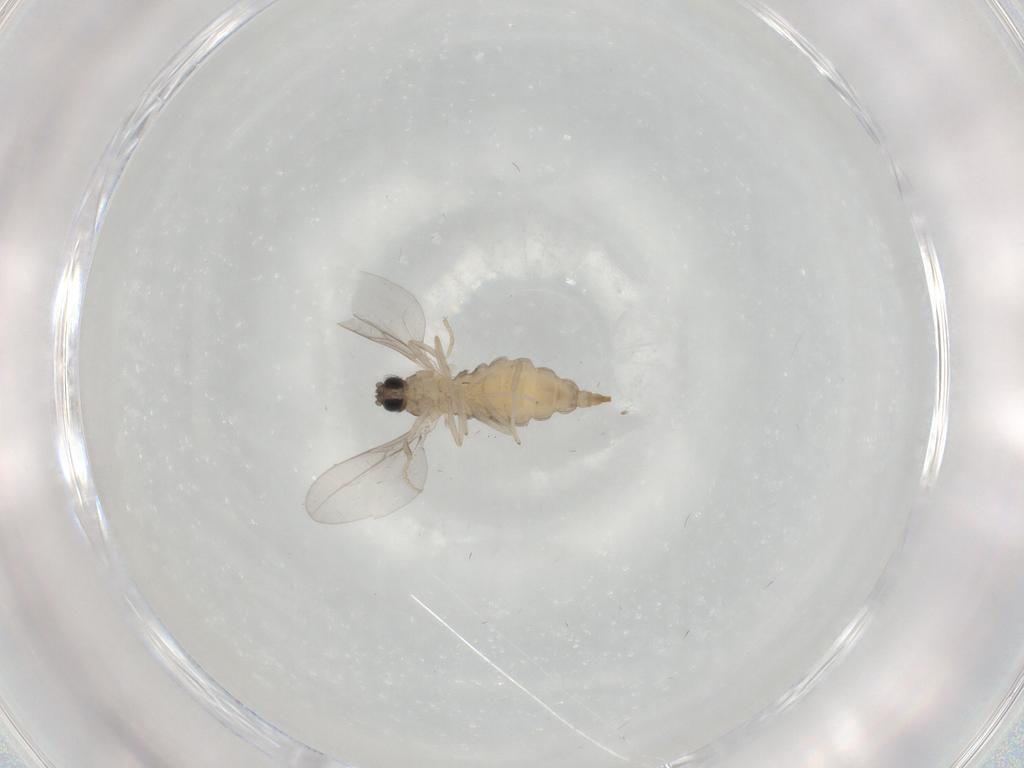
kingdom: Animalia
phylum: Arthropoda
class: Insecta
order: Diptera
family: Cecidomyiidae
